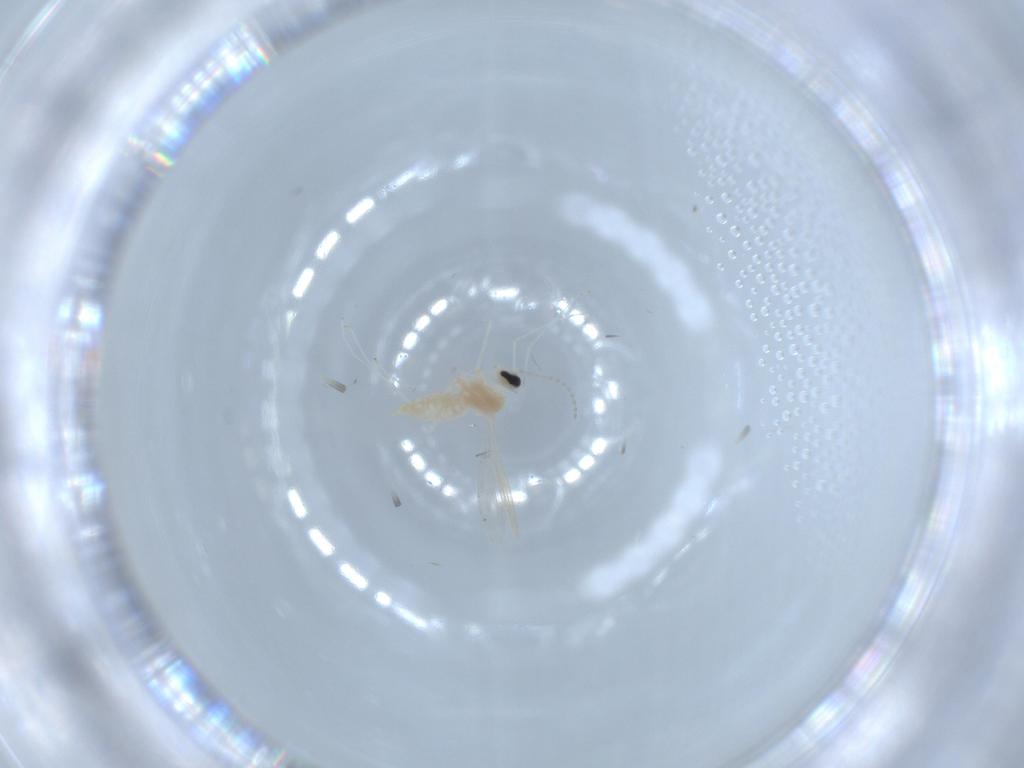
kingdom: Animalia
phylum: Arthropoda
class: Insecta
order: Diptera
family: Cecidomyiidae
